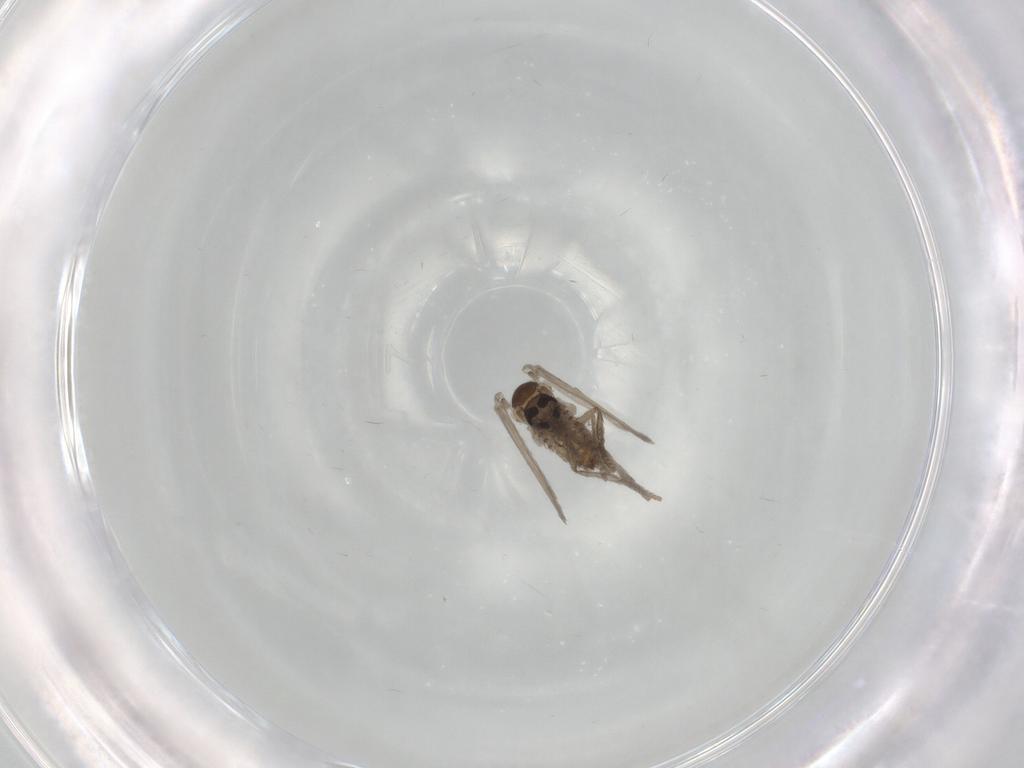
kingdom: Animalia
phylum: Arthropoda
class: Insecta
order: Diptera
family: Psychodidae
